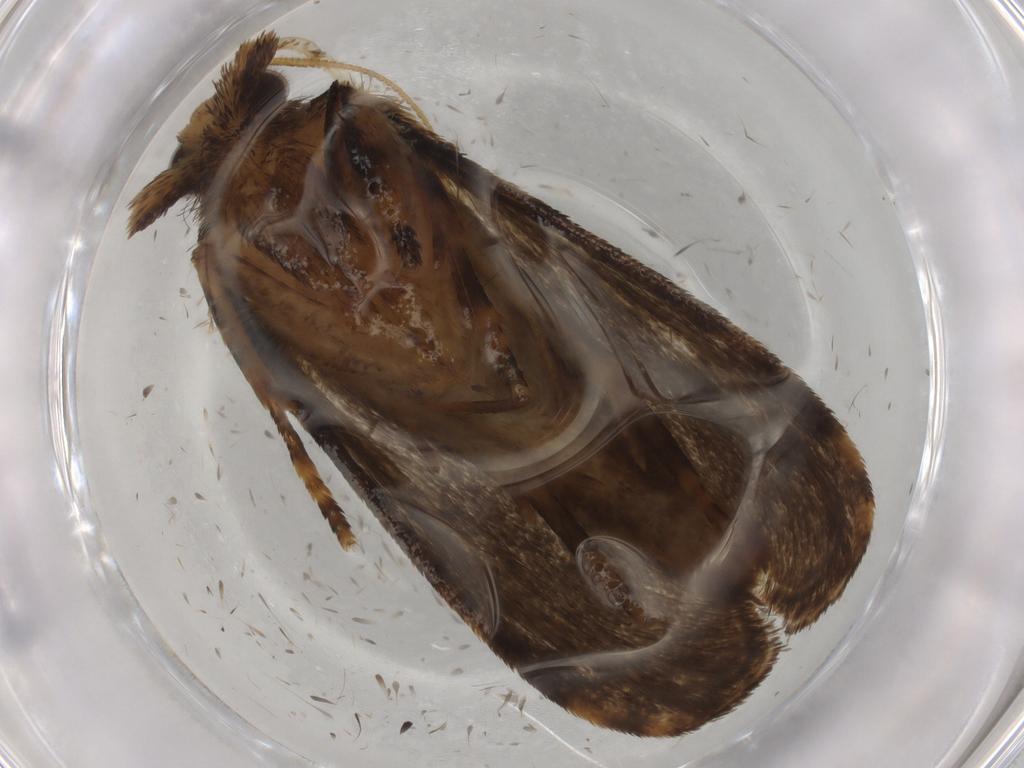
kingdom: Animalia
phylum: Arthropoda
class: Insecta
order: Lepidoptera
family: Tineidae
